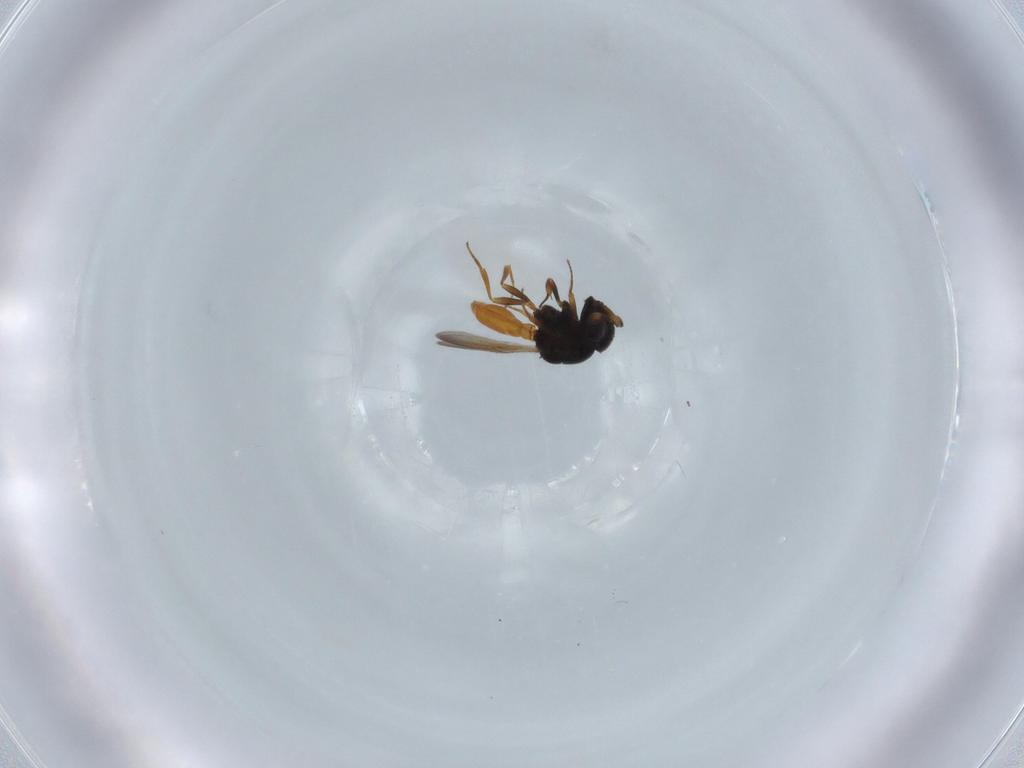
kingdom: Animalia
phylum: Arthropoda
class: Insecta
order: Hymenoptera
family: Scelionidae
